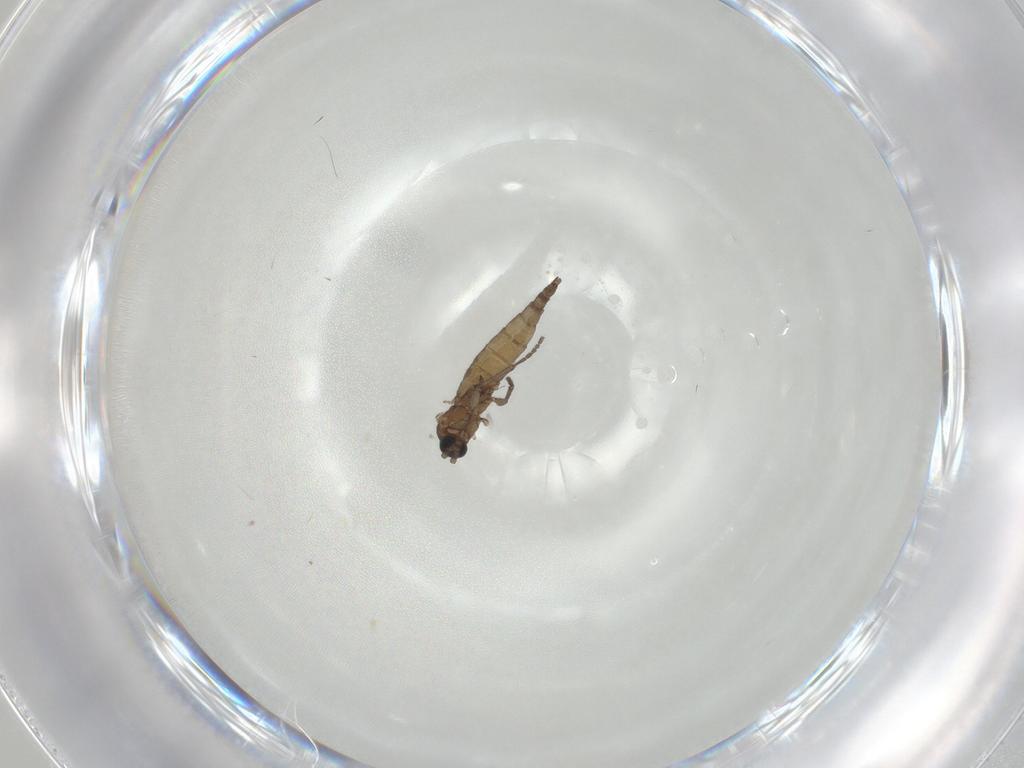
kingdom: Animalia
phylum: Arthropoda
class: Insecta
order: Diptera
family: Sciaridae
